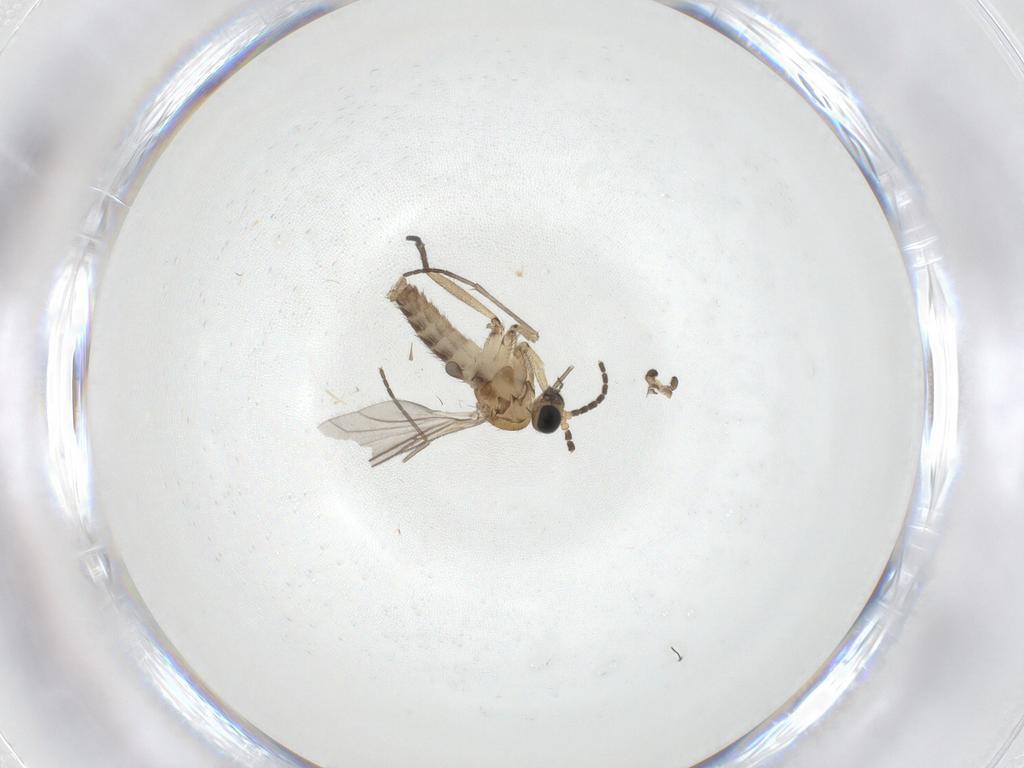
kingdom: Animalia
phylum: Arthropoda
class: Insecta
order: Diptera
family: Sciaridae
